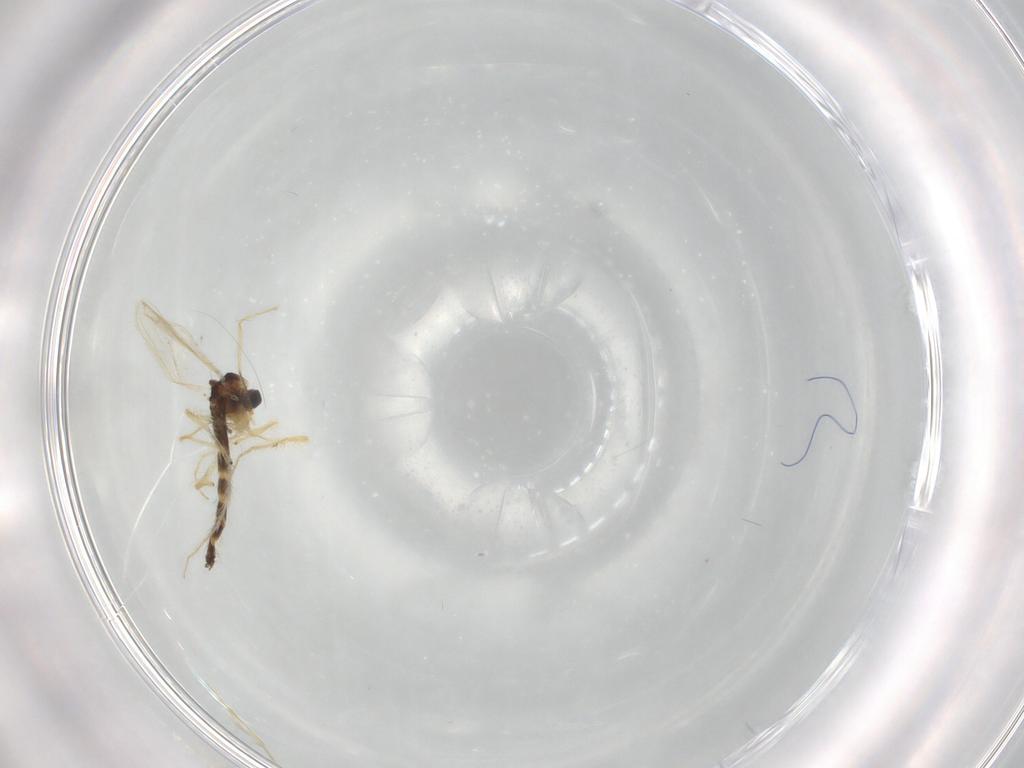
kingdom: Animalia
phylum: Arthropoda
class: Insecta
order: Diptera
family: Chironomidae
